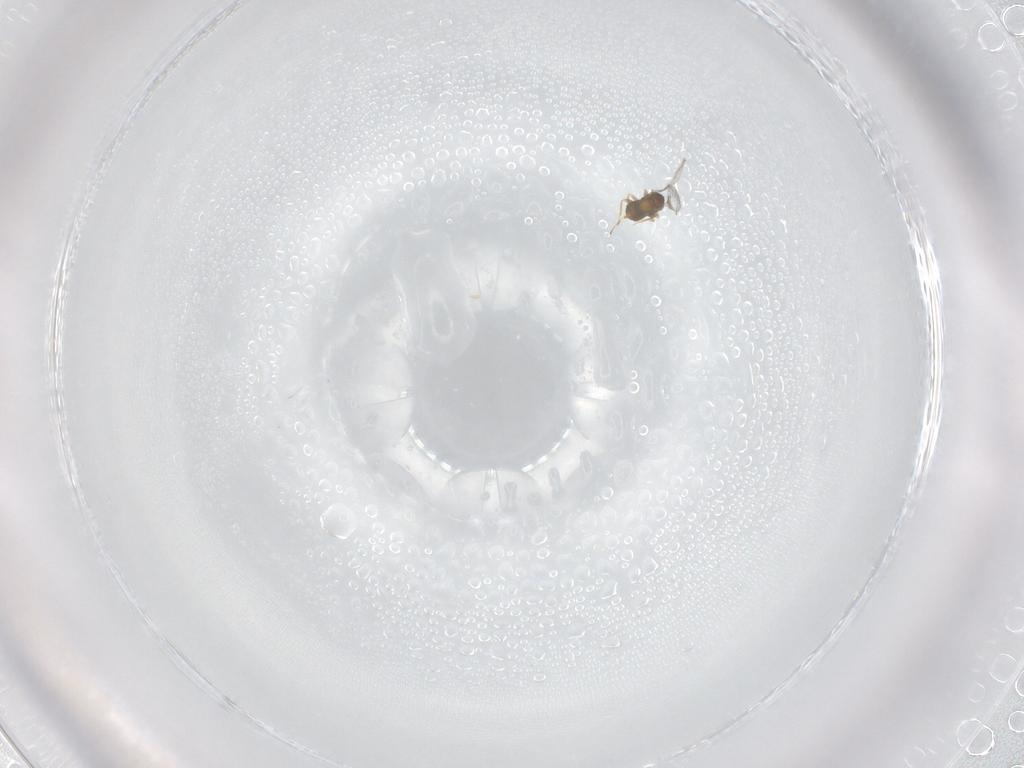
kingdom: Animalia
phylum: Arthropoda
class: Insecta
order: Hymenoptera
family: Trichogrammatidae
